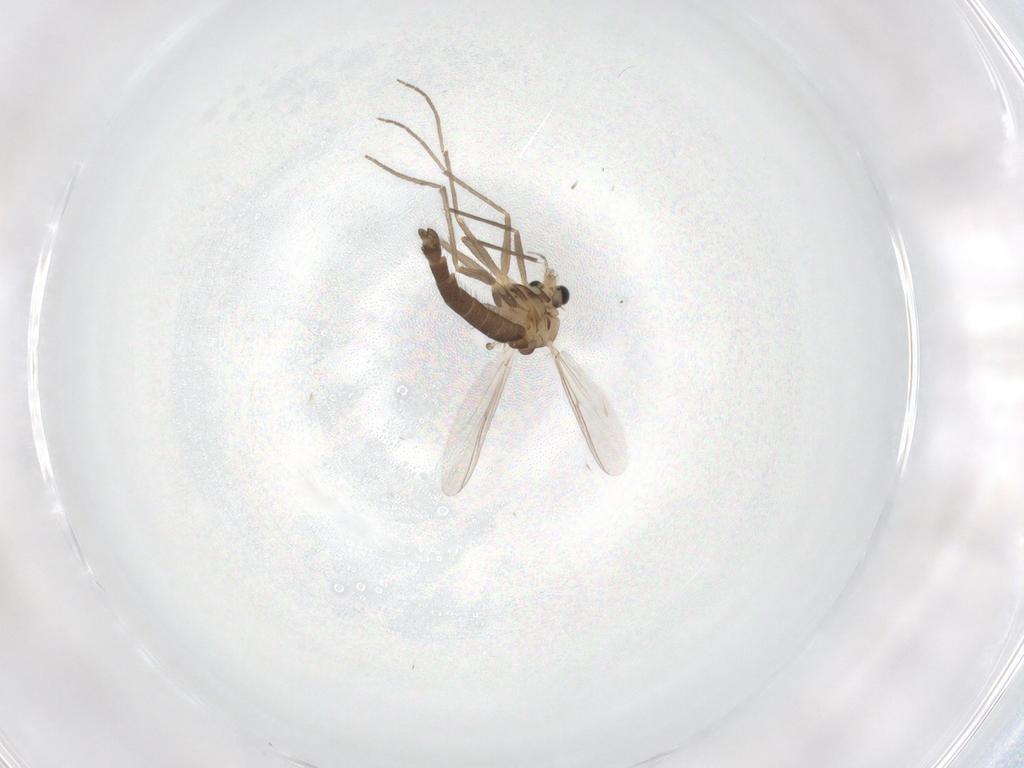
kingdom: Animalia
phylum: Arthropoda
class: Insecta
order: Diptera
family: Chironomidae
